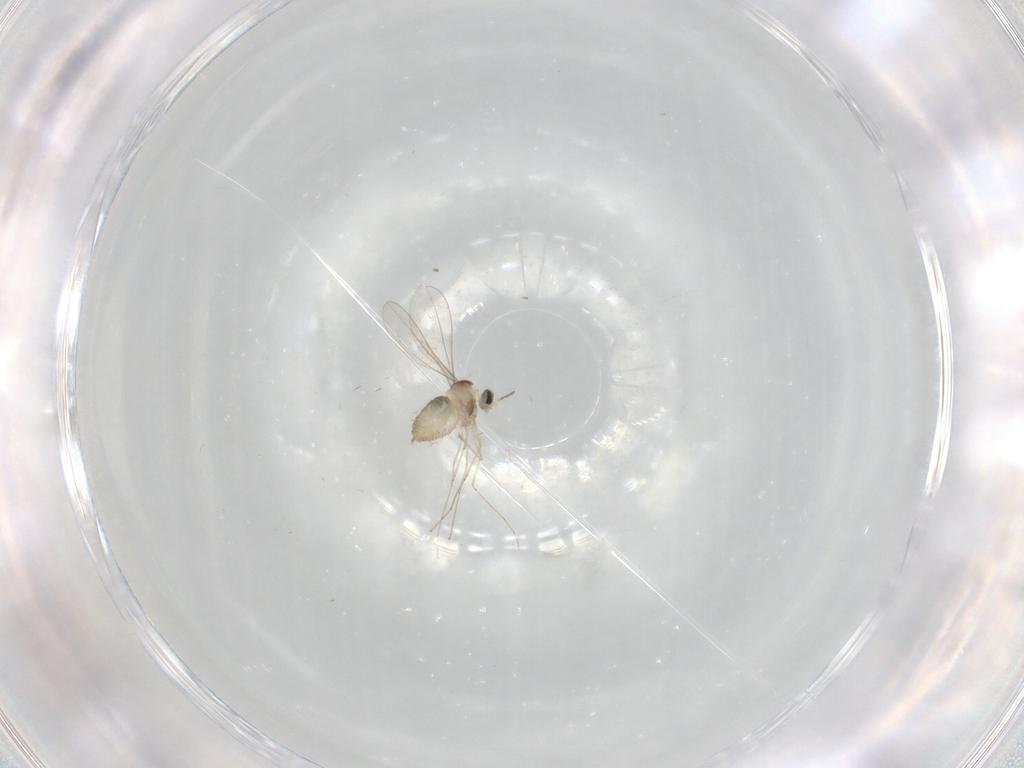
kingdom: Animalia
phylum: Arthropoda
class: Insecta
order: Diptera
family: Cecidomyiidae
